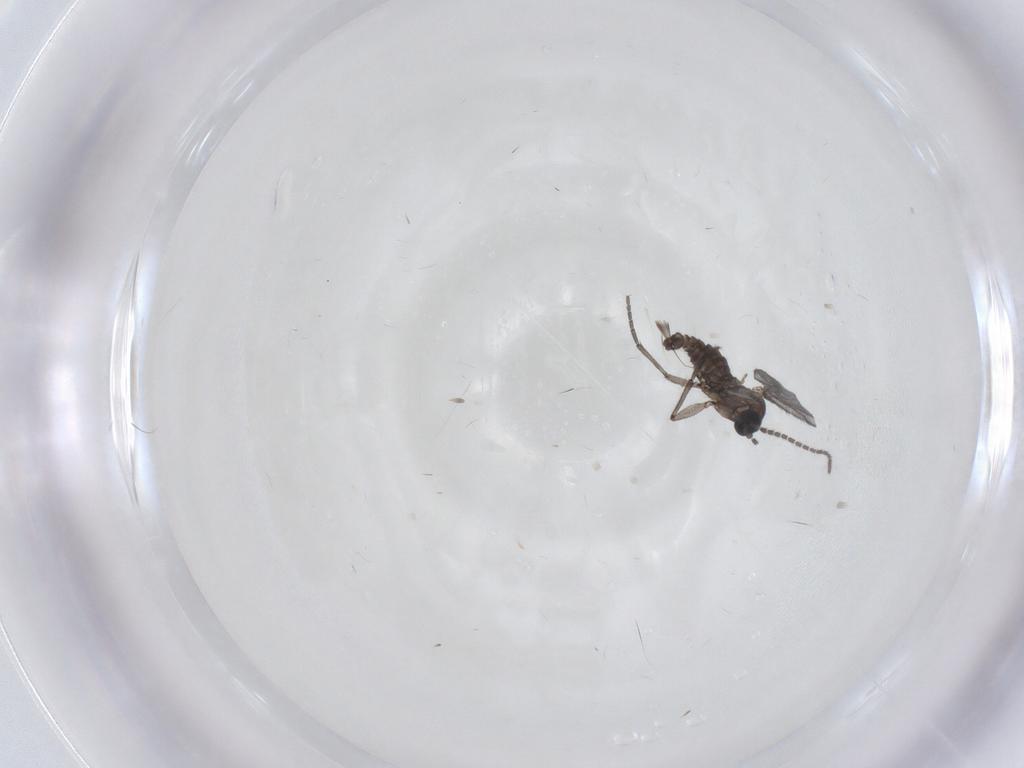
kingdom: Animalia
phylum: Arthropoda
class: Insecta
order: Diptera
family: Sciaridae
